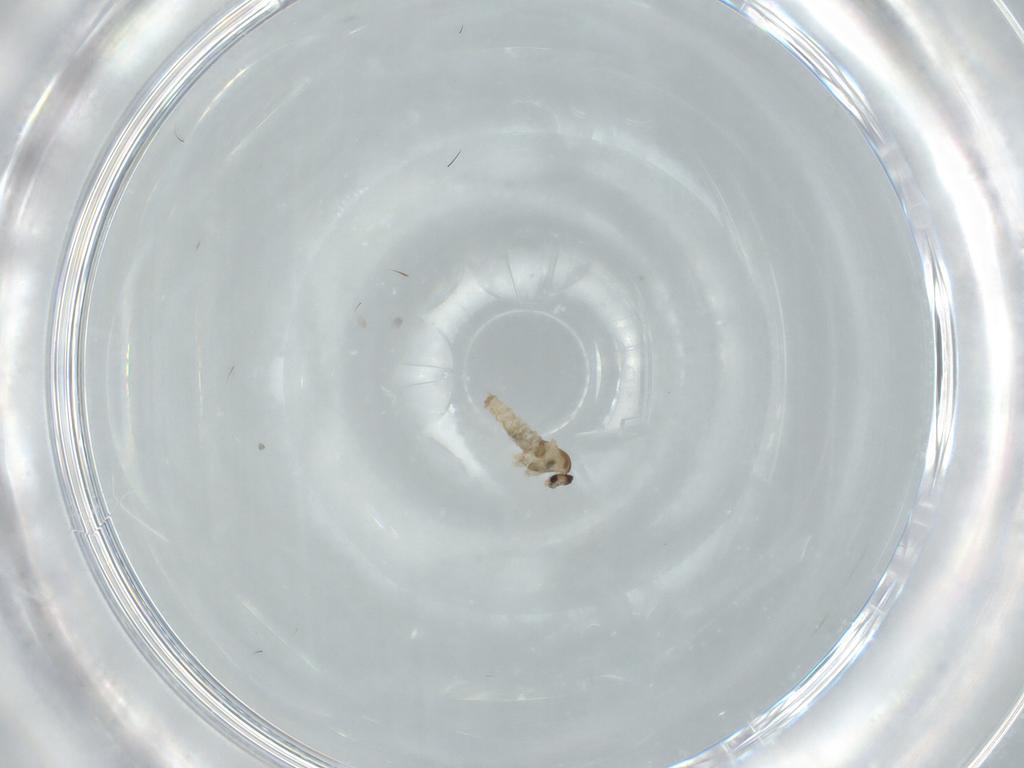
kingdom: Animalia
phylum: Arthropoda
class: Insecta
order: Diptera
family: Cecidomyiidae
